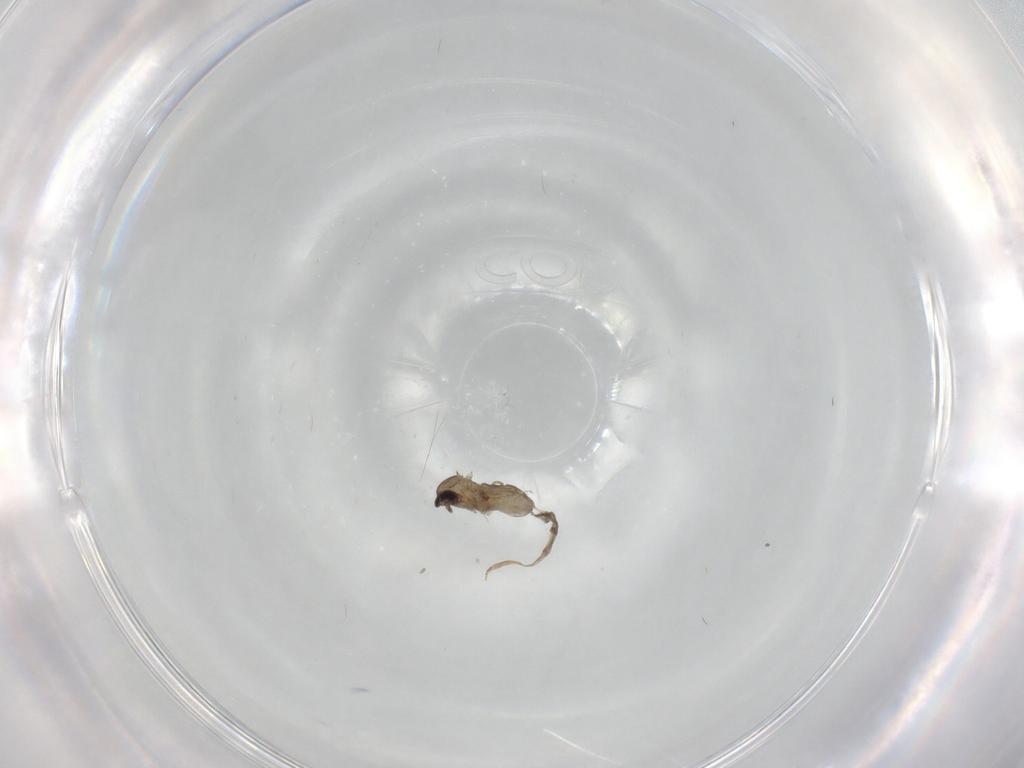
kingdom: Animalia
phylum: Arthropoda
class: Insecta
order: Diptera
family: Cecidomyiidae
